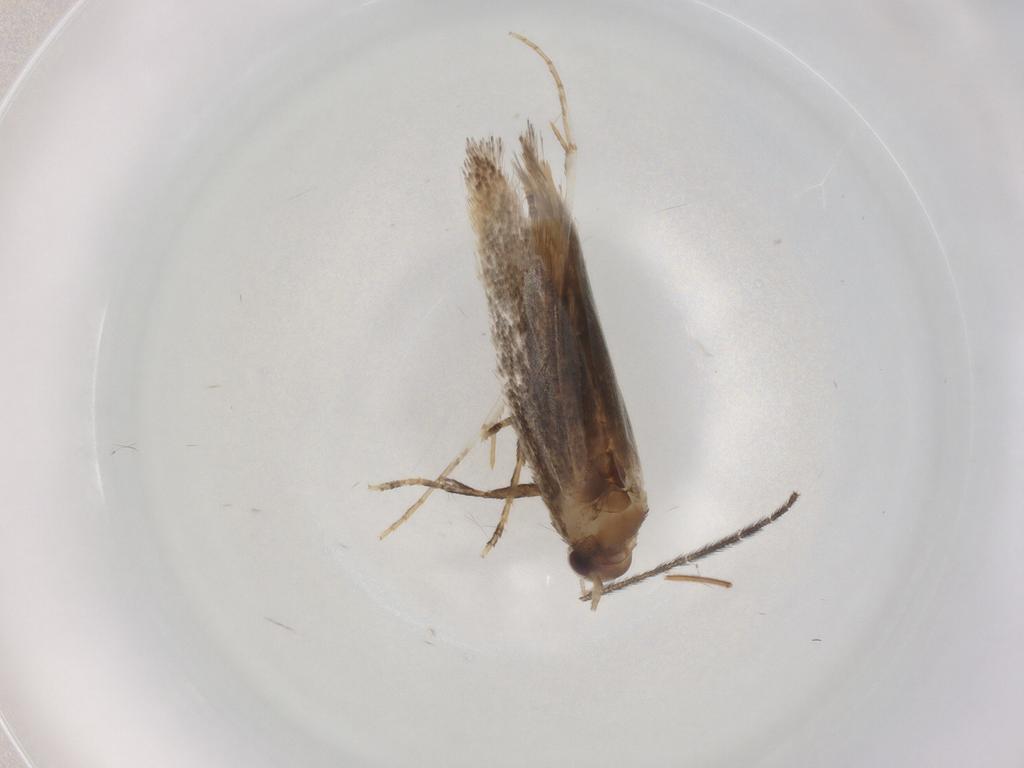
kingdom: Animalia
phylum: Arthropoda
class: Insecta
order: Lepidoptera
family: Elachistidae
